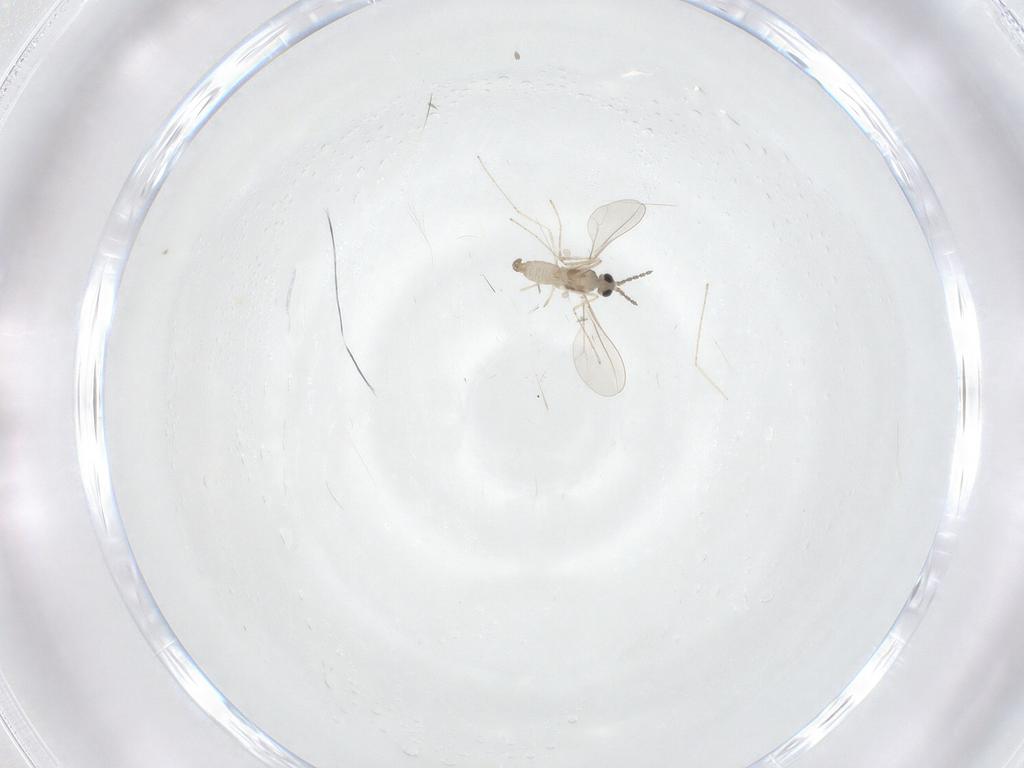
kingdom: Animalia
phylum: Arthropoda
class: Insecta
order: Diptera
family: Cecidomyiidae
